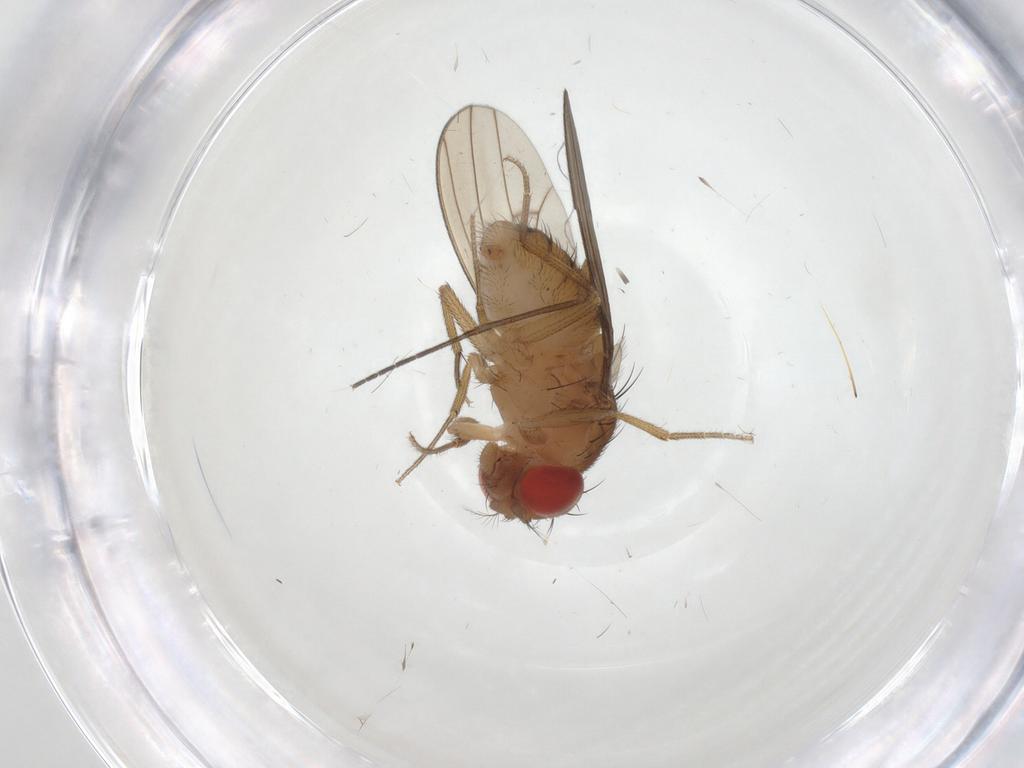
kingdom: Animalia
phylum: Arthropoda
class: Insecta
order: Diptera
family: Drosophilidae
